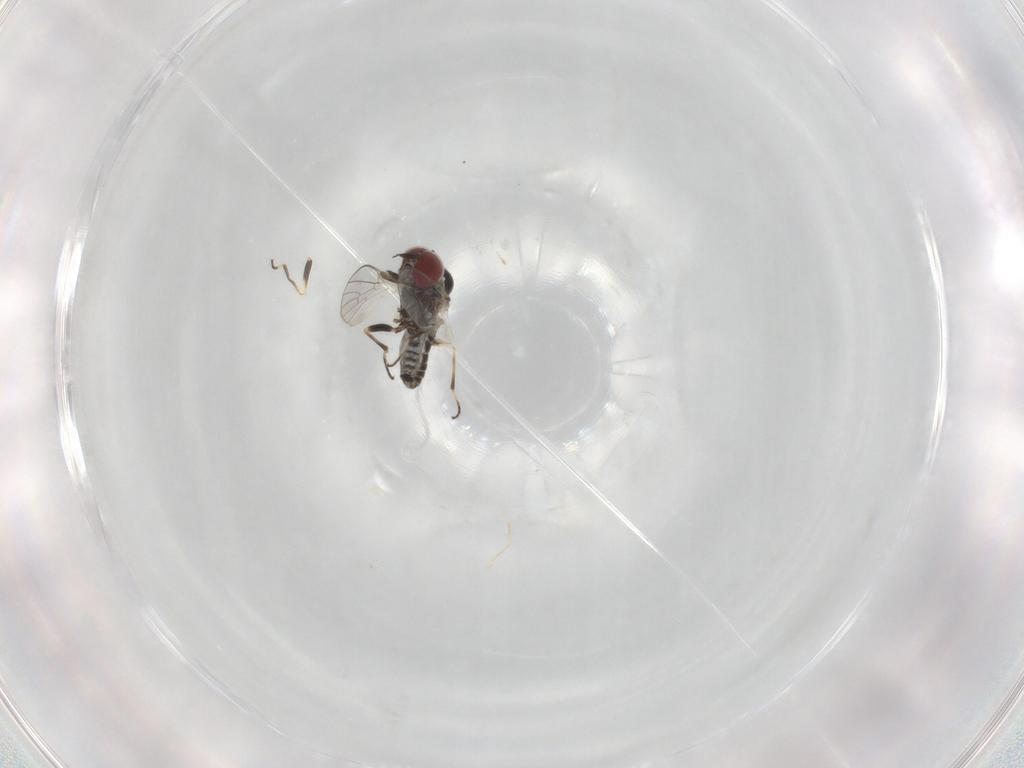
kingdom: Animalia
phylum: Arthropoda
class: Insecta
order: Diptera
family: Mythicomyiidae
